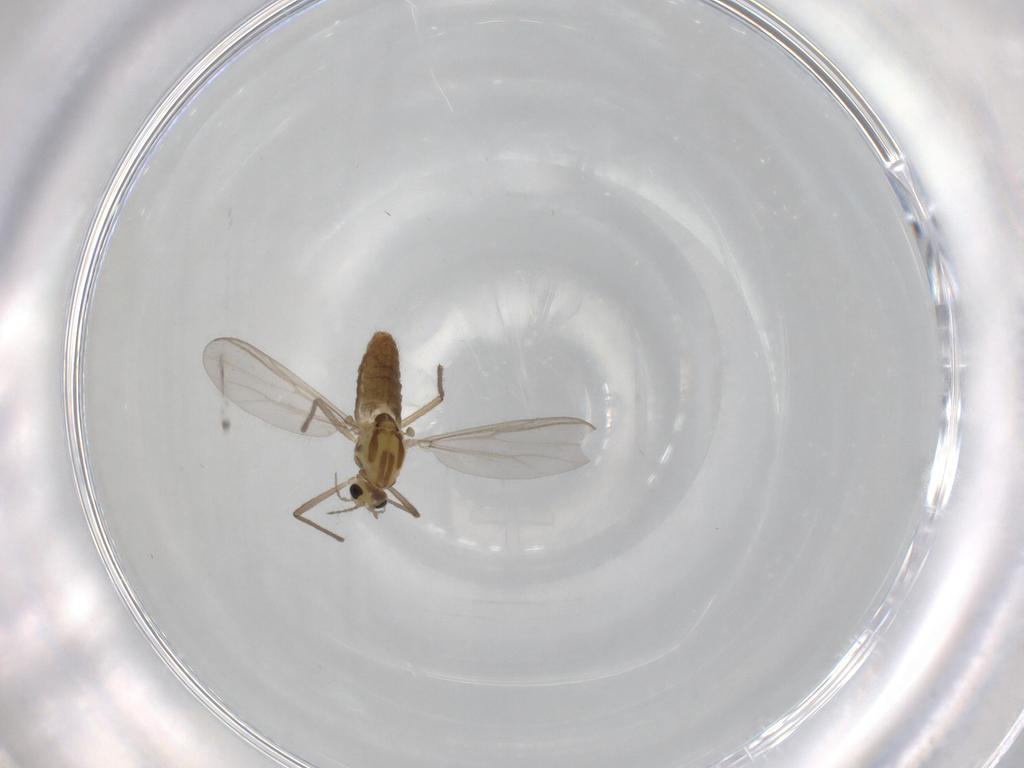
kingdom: Animalia
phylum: Arthropoda
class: Insecta
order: Diptera
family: Chironomidae
